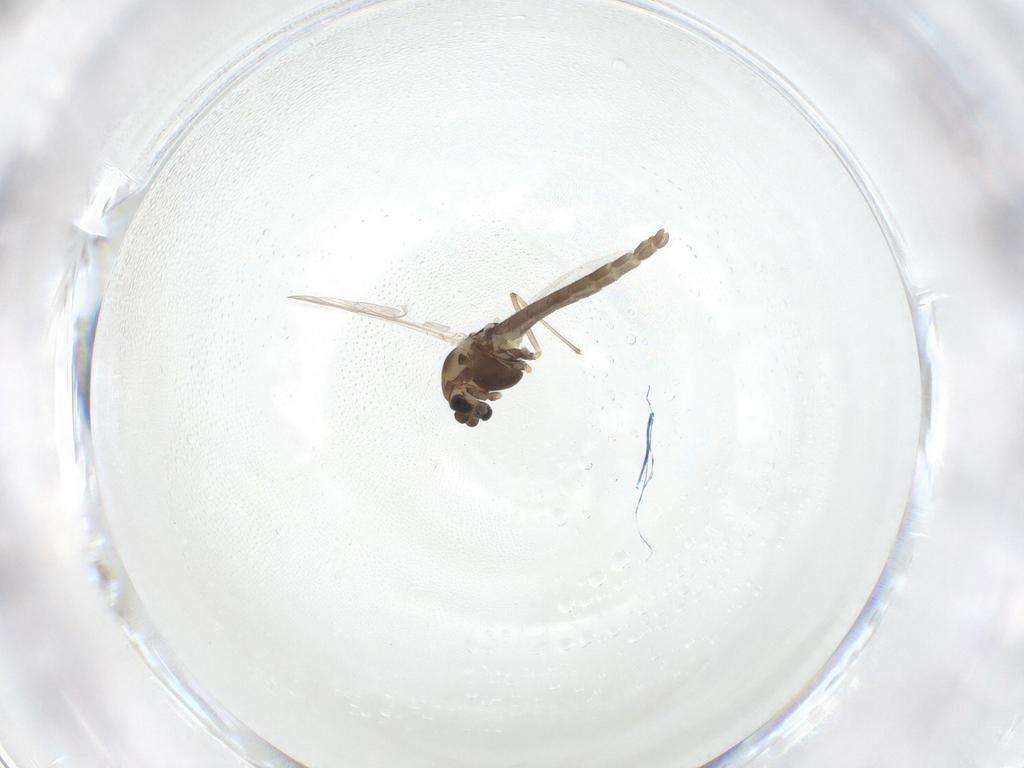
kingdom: Animalia
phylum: Arthropoda
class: Insecta
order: Diptera
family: Chironomidae
